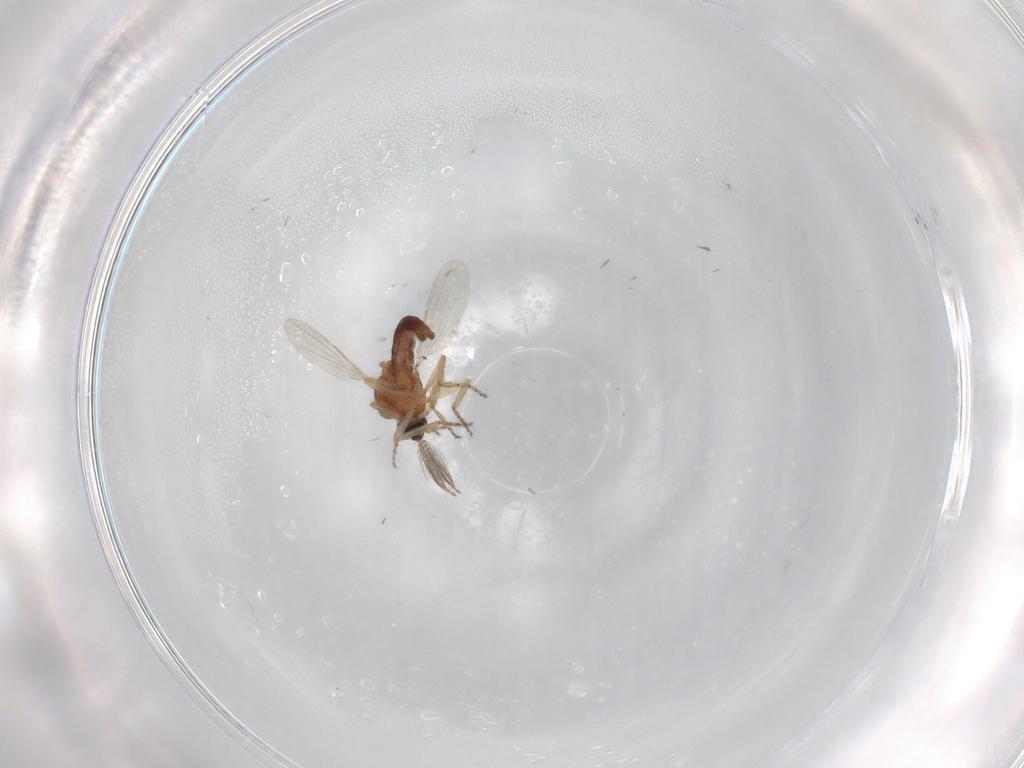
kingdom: Animalia
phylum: Arthropoda
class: Insecta
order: Diptera
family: Ceratopogonidae
